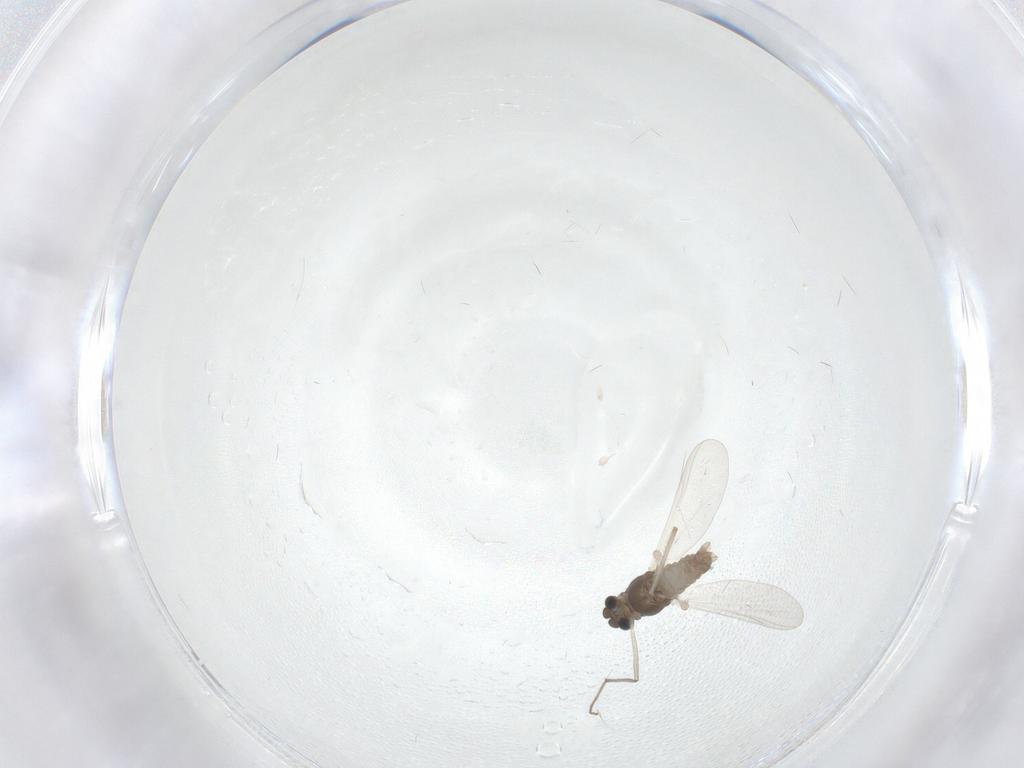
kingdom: Animalia
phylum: Arthropoda
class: Insecta
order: Diptera
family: Chironomidae
